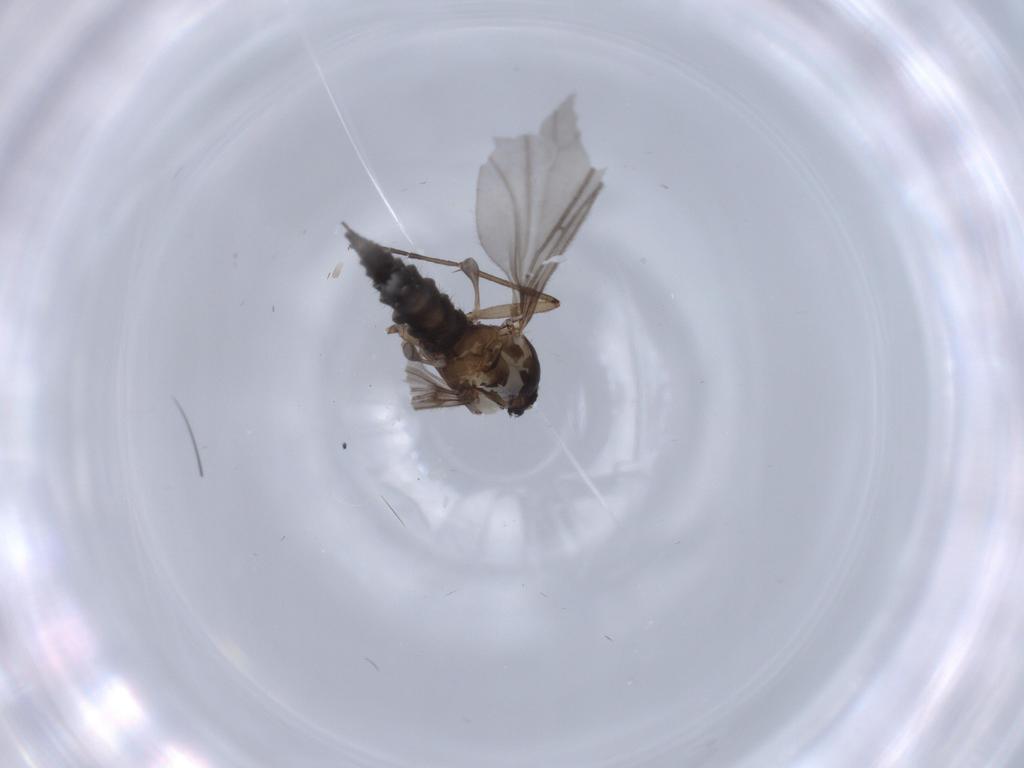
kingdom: Animalia
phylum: Arthropoda
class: Insecta
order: Diptera
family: Sciaridae
